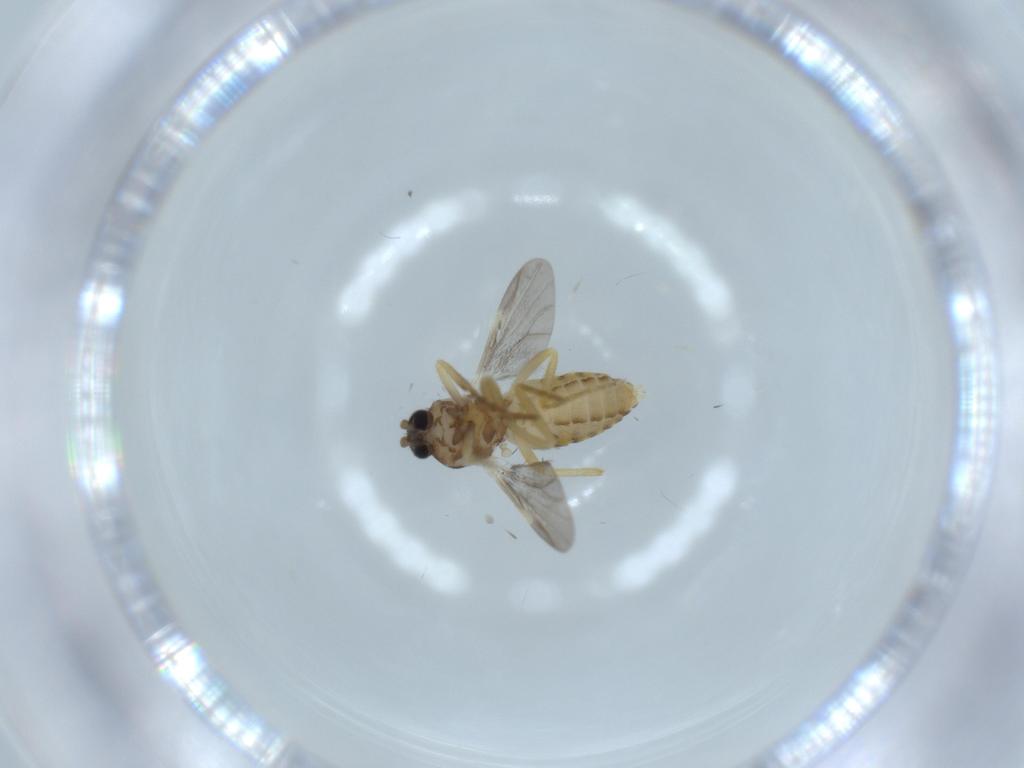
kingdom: Animalia
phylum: Arthropoda
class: Insecta
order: Diptera
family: Ceratopogonidae
